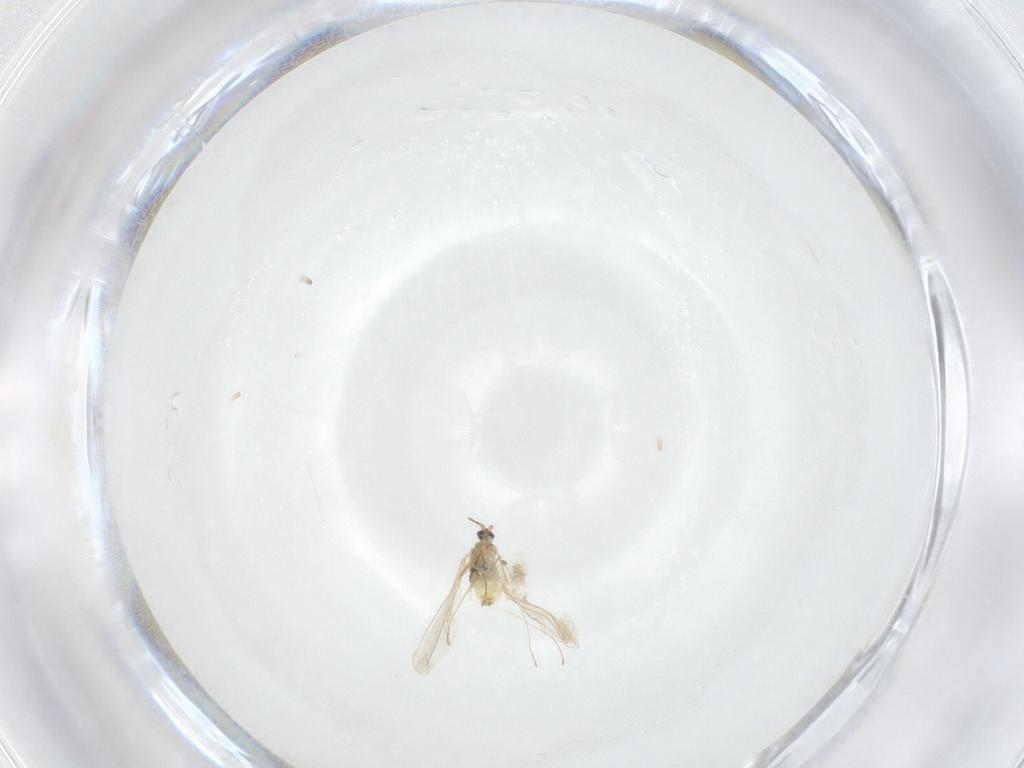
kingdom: Animalia
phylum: Arthropoda
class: Insecta
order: Diptera
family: Cecidomyiidae
